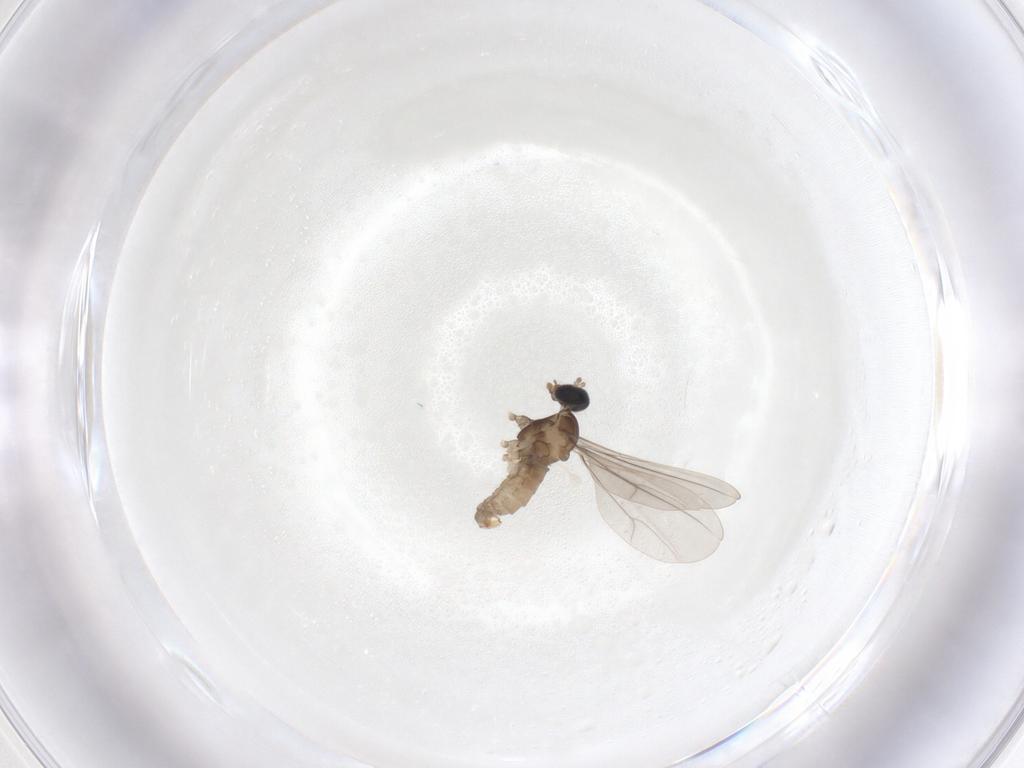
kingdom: Animalia
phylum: Arthropoda
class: Insecta
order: Diptera
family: Cecidomyiidae
